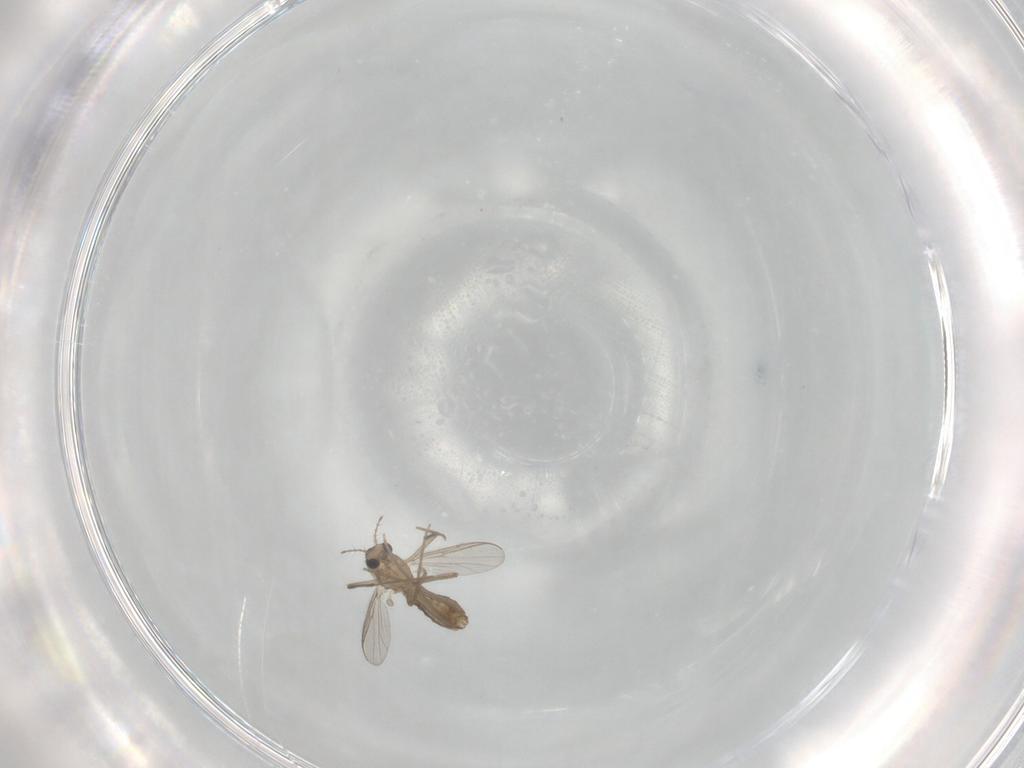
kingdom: Animalia
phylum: Arthropoda
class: Insecta
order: Diptera
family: Chironomidae
